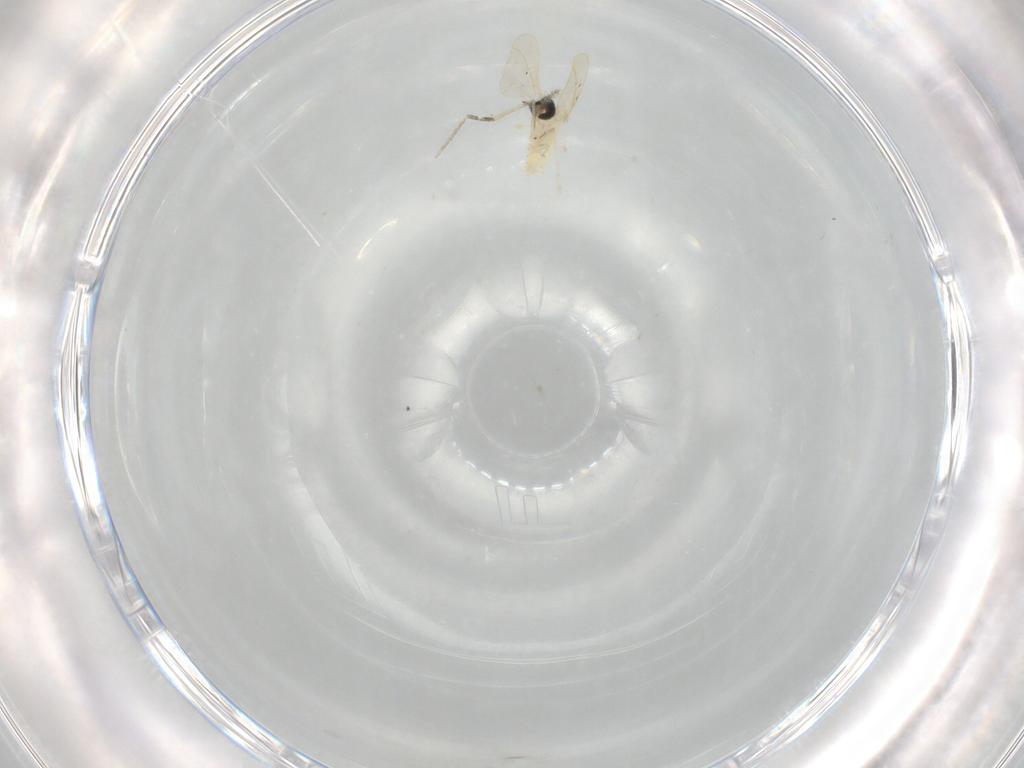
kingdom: Animalia
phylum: Arthropoda
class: Insecta
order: Diptera
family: Cecidomyiidae
